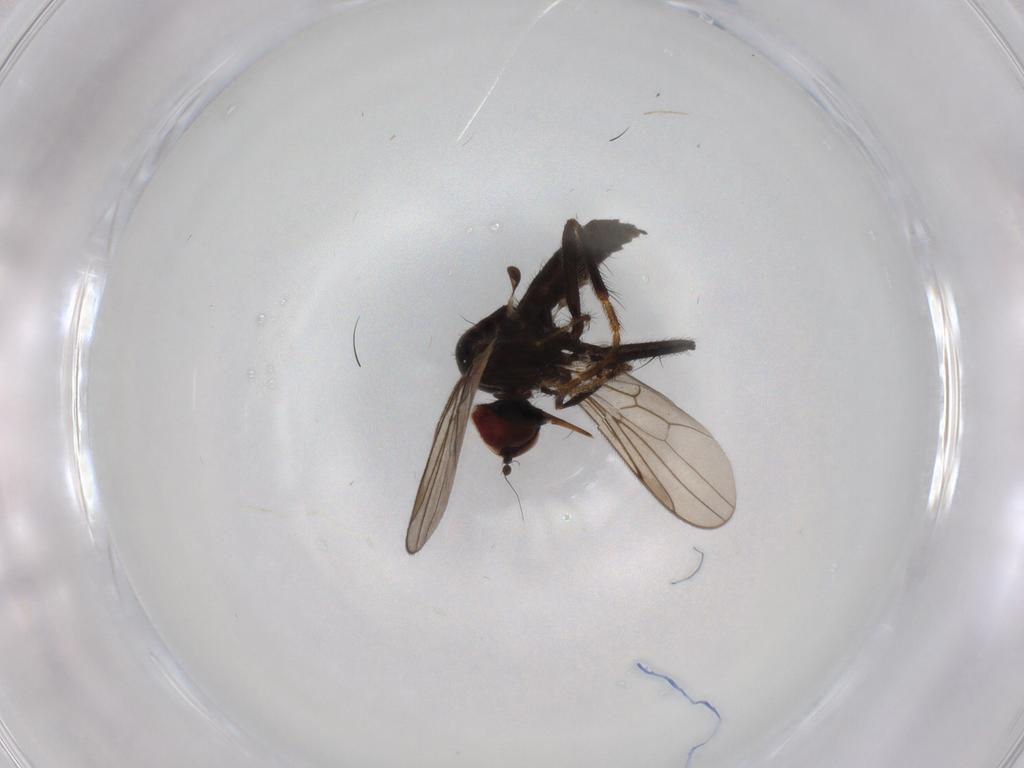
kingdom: Animalia
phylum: Arthropoda
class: Insecta
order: Diptera
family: Hybotidae
